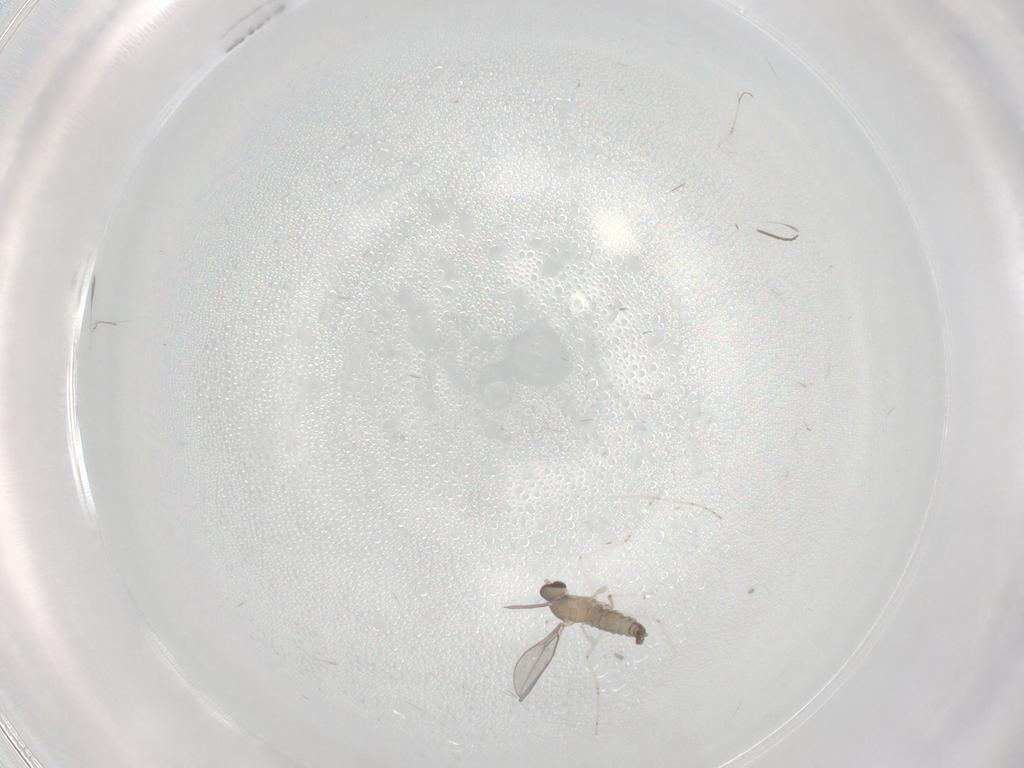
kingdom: Animalia
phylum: Arthropoda
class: Insecta
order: Diptera
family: Cecidomyiidae
